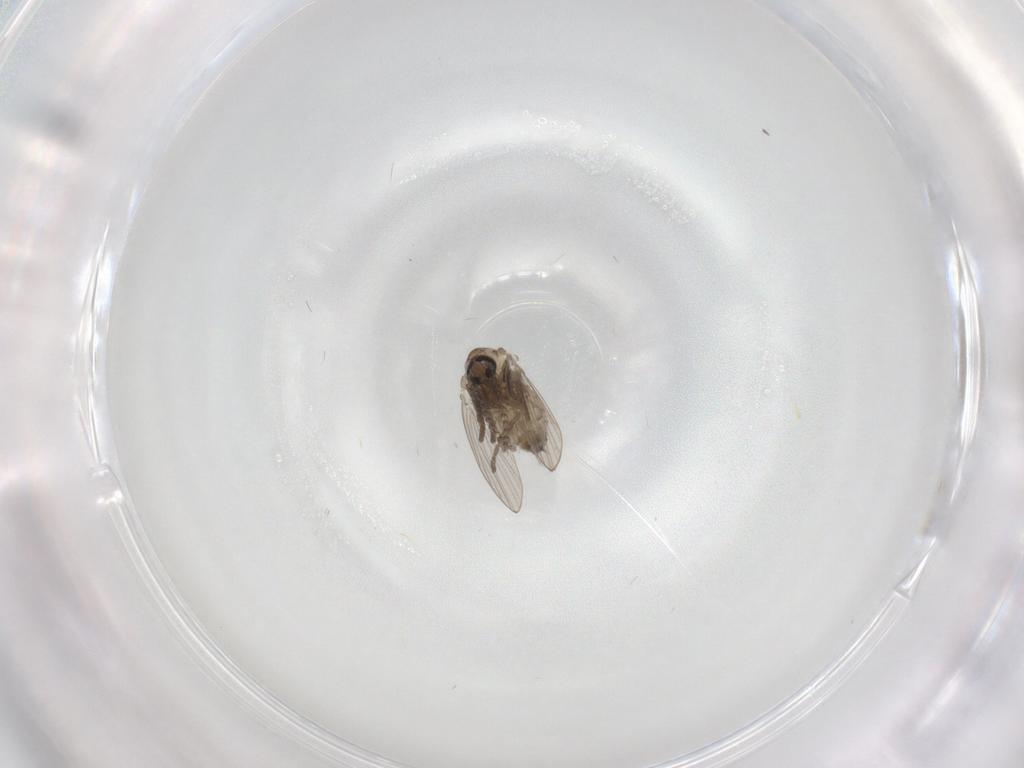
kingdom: Animalia
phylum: Arthropoda
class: Insecta
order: Diptera
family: Psychodidae
